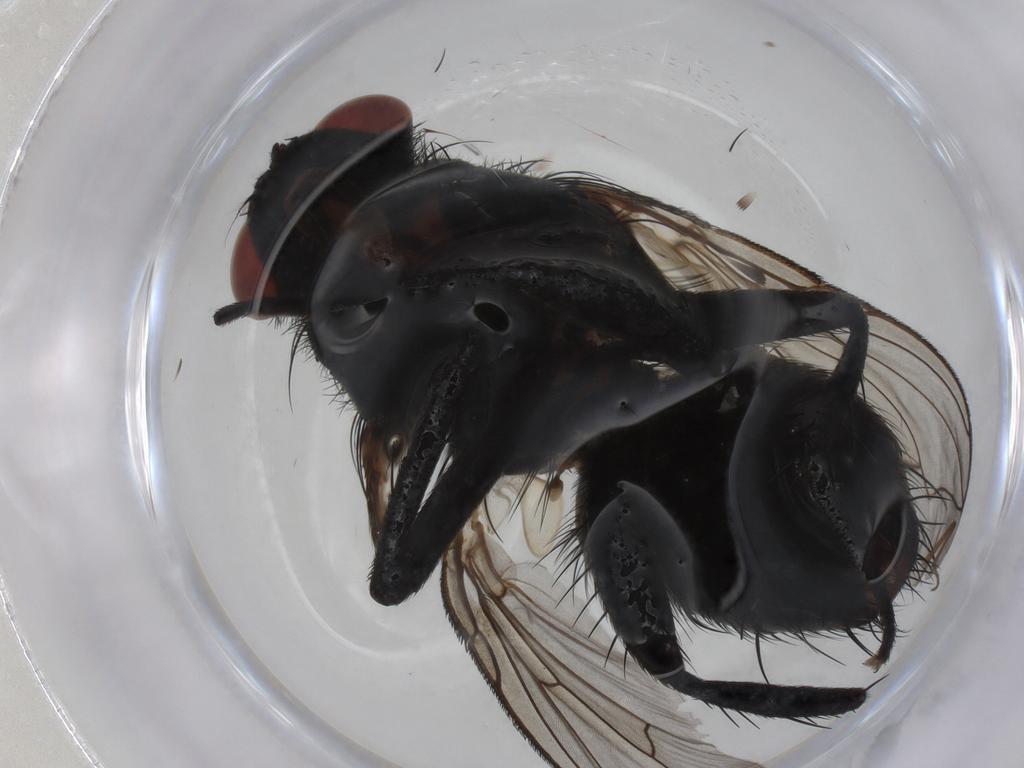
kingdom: Animalia
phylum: Arthropoda
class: Insecta
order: Diptera
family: Sarcophagidae
